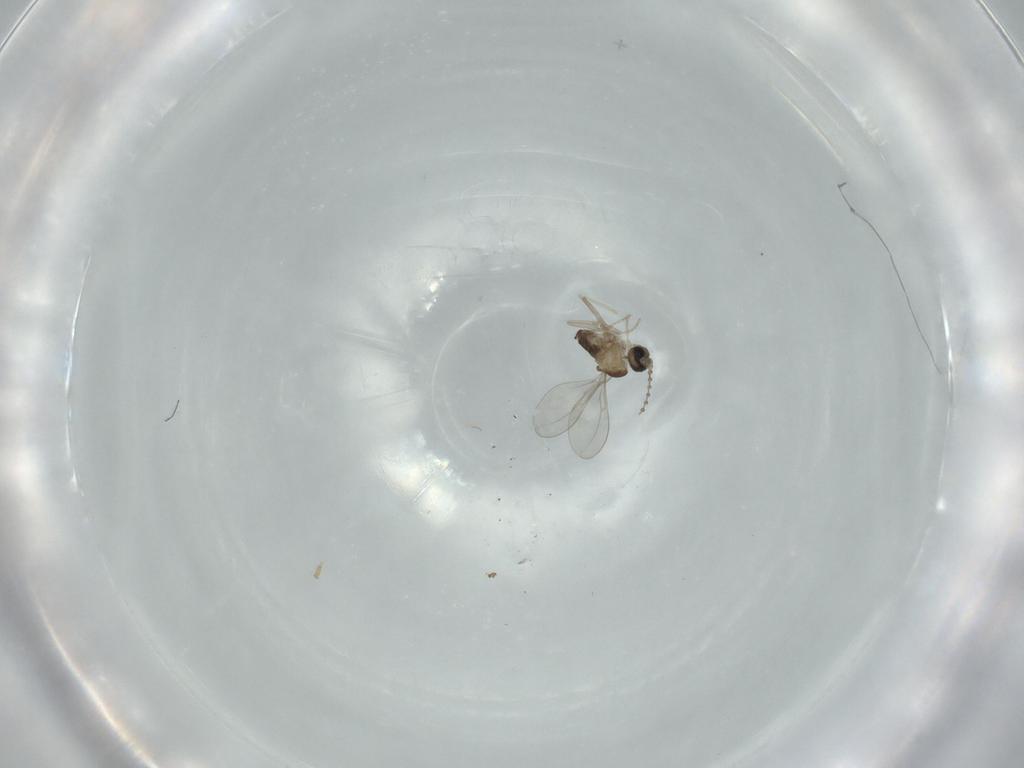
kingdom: Animalia
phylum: Arthropoda
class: Insecta
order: Diptera
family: Cecidomyiidae
